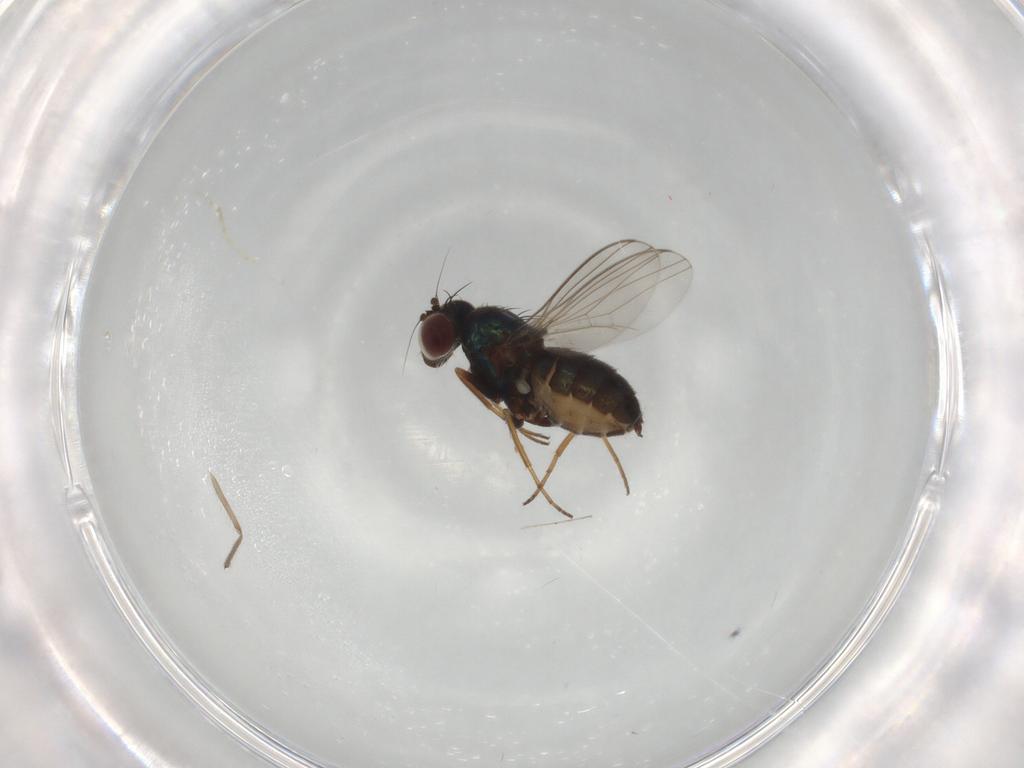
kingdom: Animalia
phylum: Arthropoda
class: Insecta
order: Diptera
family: Dolichopodidae
